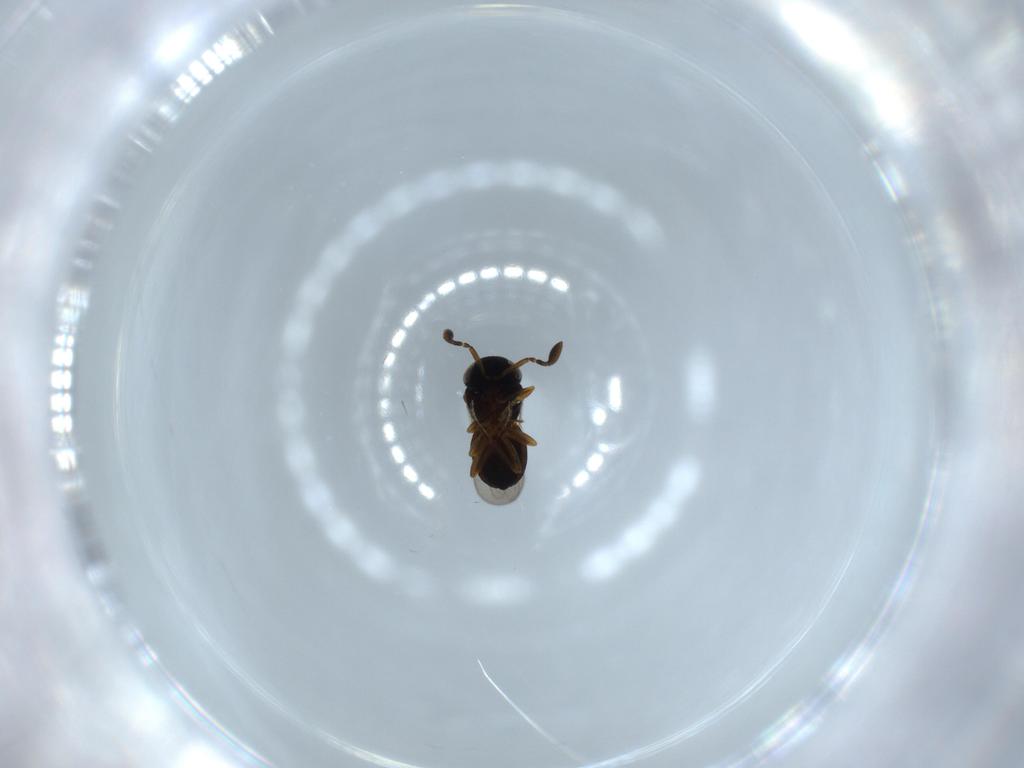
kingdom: Animalia
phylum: Arthropoda
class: Insecta
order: Hymenoptera
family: Scelionidae
